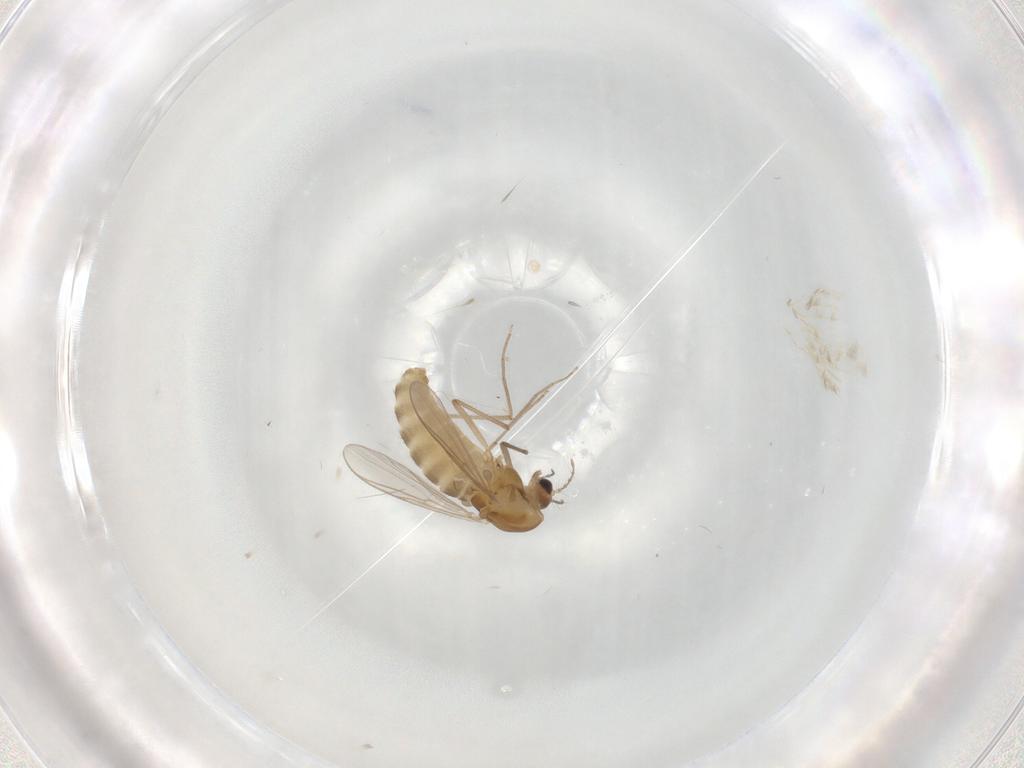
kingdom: Animalia
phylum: Arthropoda
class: Insecta
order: Diptera
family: Chironomidae
